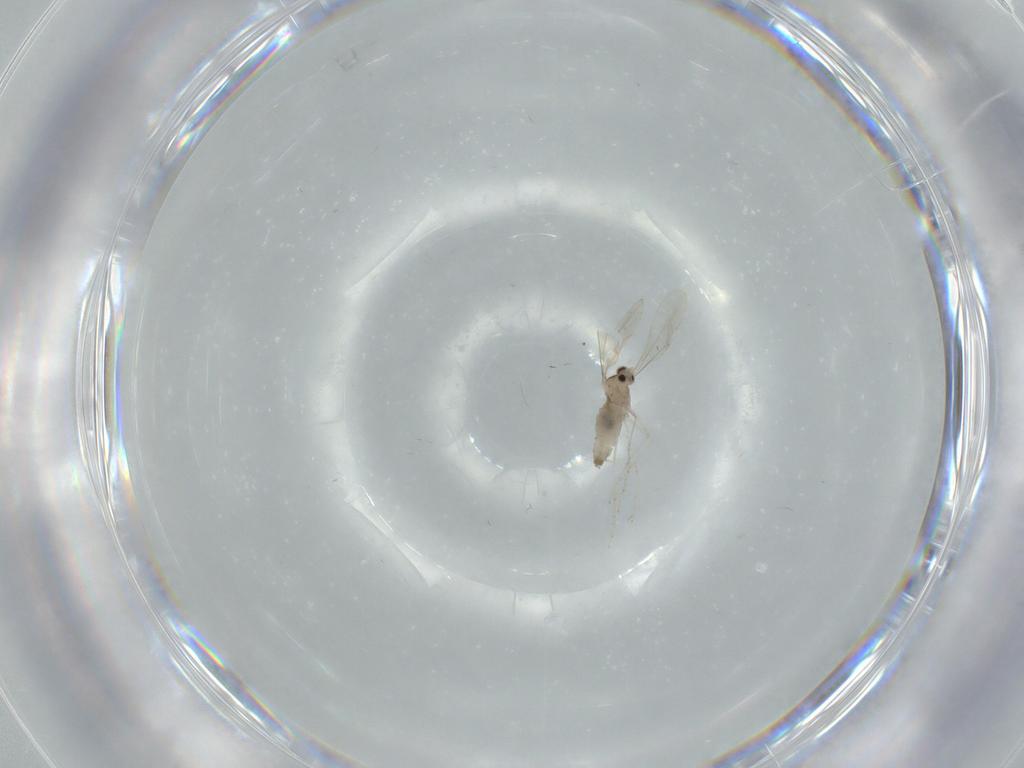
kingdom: Animalia
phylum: Arthropoda
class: Insecta
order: Diptera
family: Cecidomyiidae
